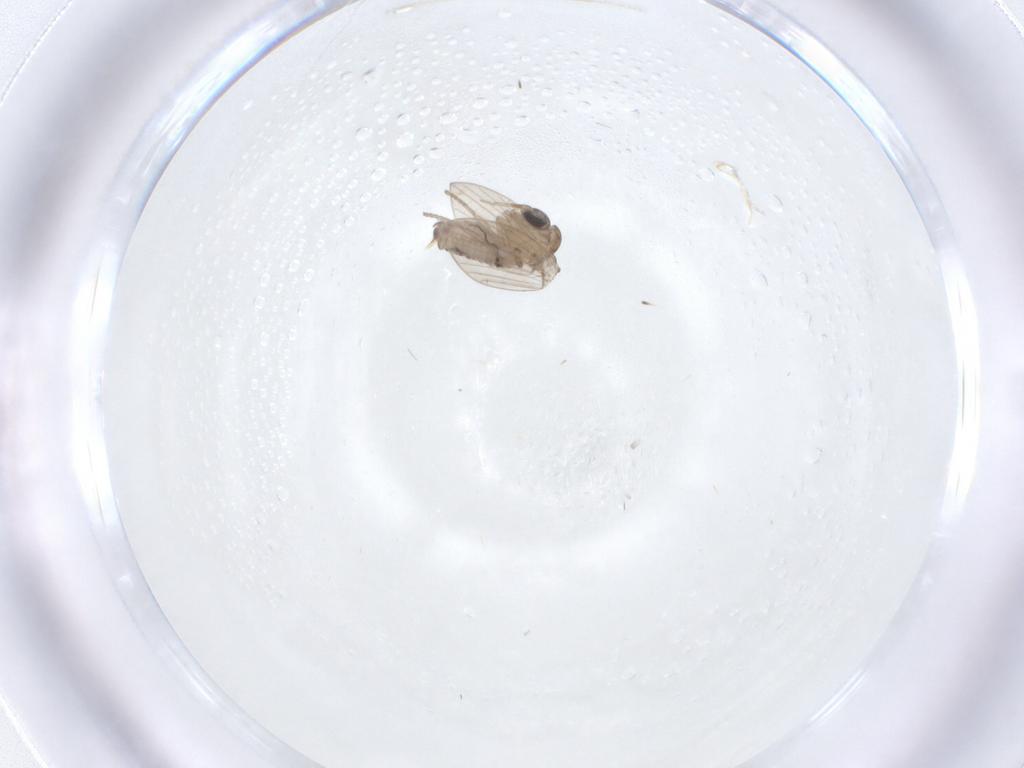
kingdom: Animalia
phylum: Arthropoda
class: Insecta
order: Diptera
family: Psychodidae
